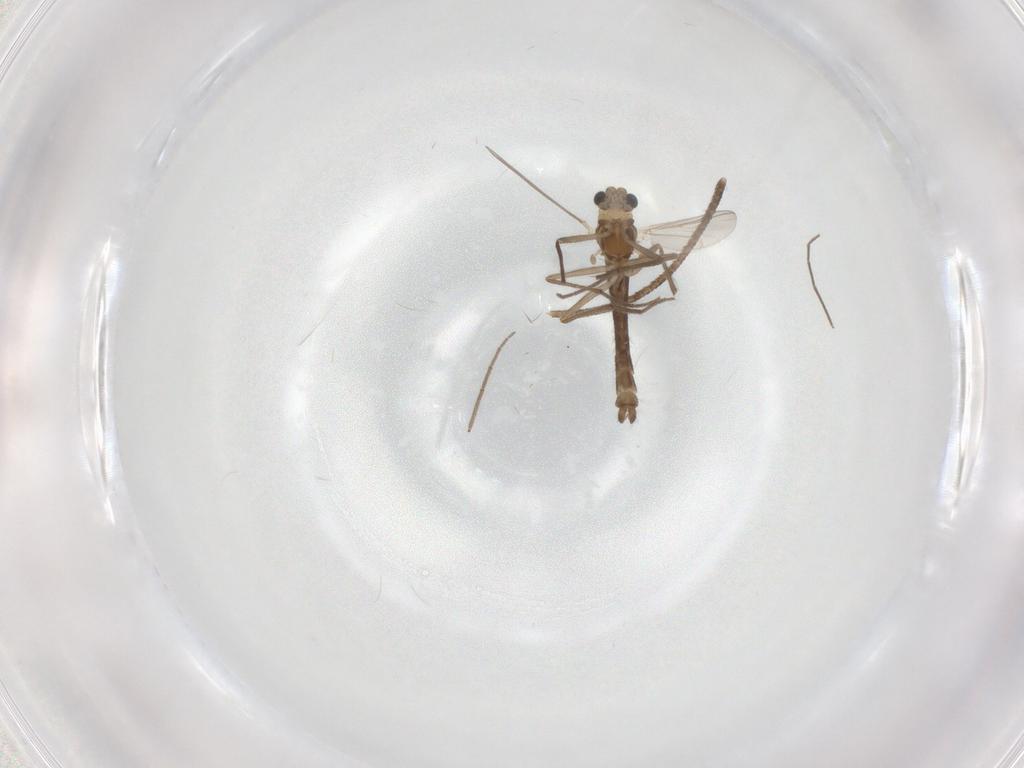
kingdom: Animalia
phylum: Arthropoda
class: Insecta
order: Diptera
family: Chironomidae
